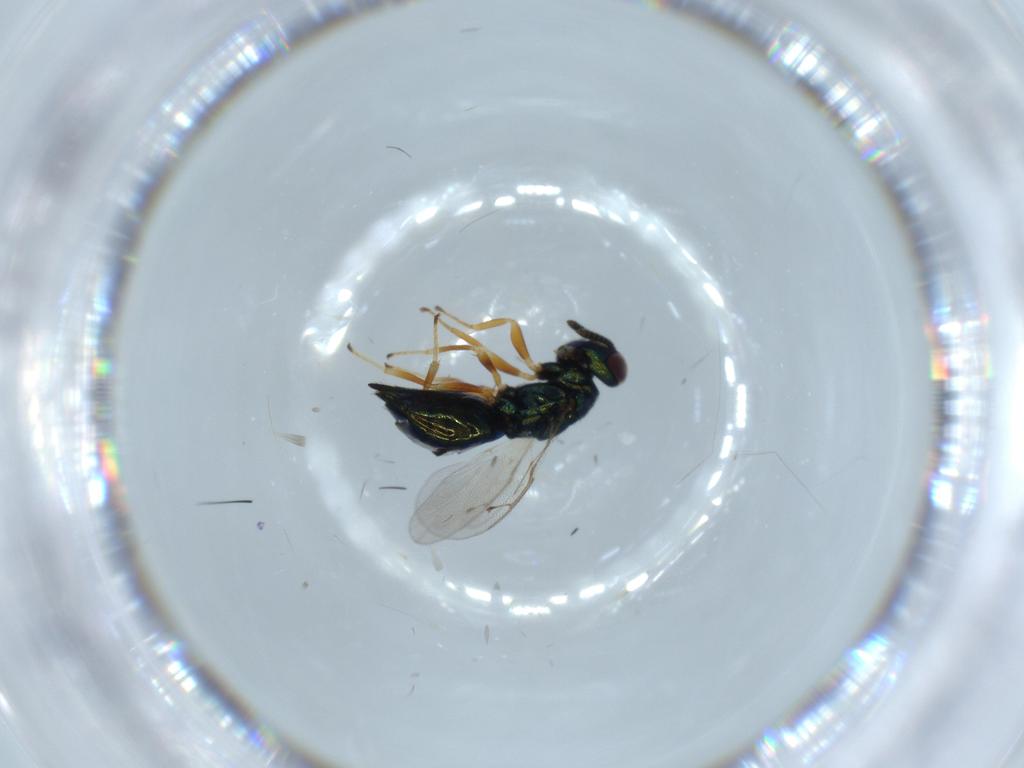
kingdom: Animalia
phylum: Arthropoda
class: Insecta
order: Hymenoptera
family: Pteromalidae
